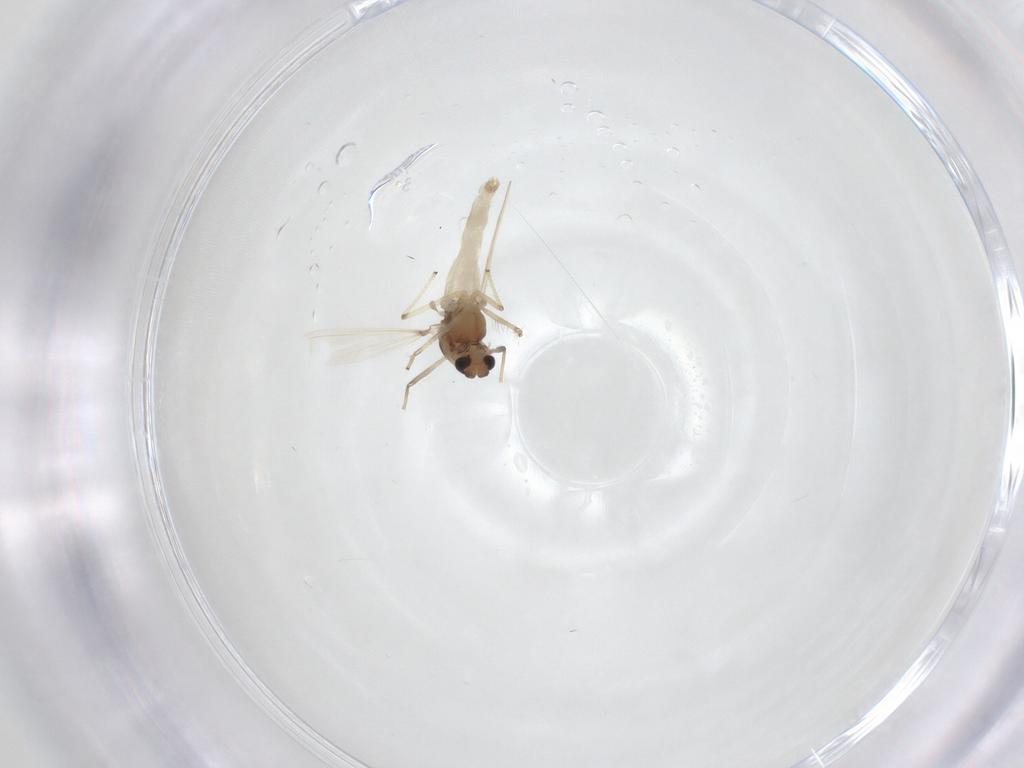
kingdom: Animalia
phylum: Arthropoda
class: Insecta
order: Diptera
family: Chironomidae
